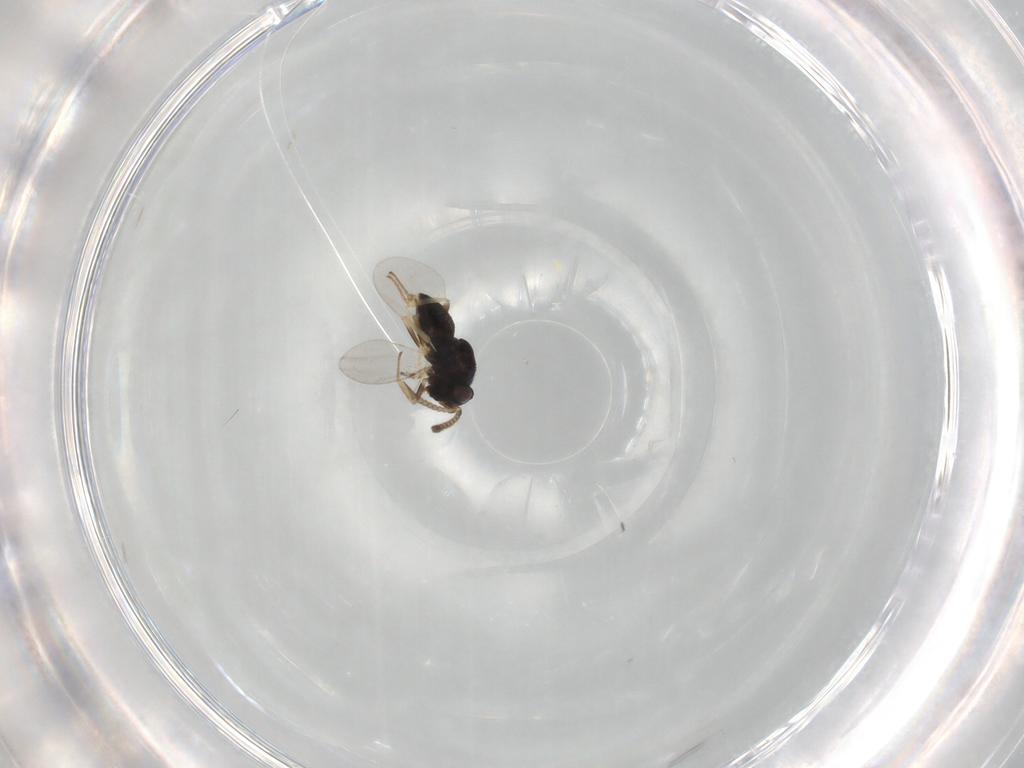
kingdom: Animalia
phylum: Arthropoda
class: Insecta
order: Hymenoptera
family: Encyrtidae
